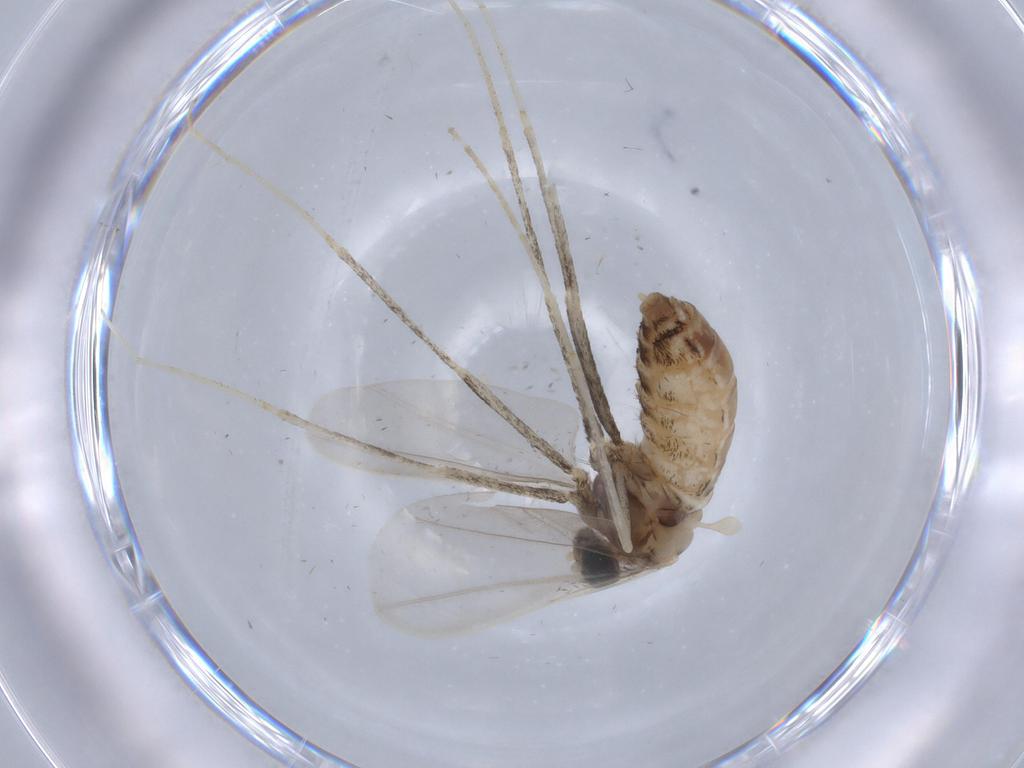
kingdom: Animalia
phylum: Arthropoda
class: Insecta
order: Diptera
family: Cecidomyiidae
